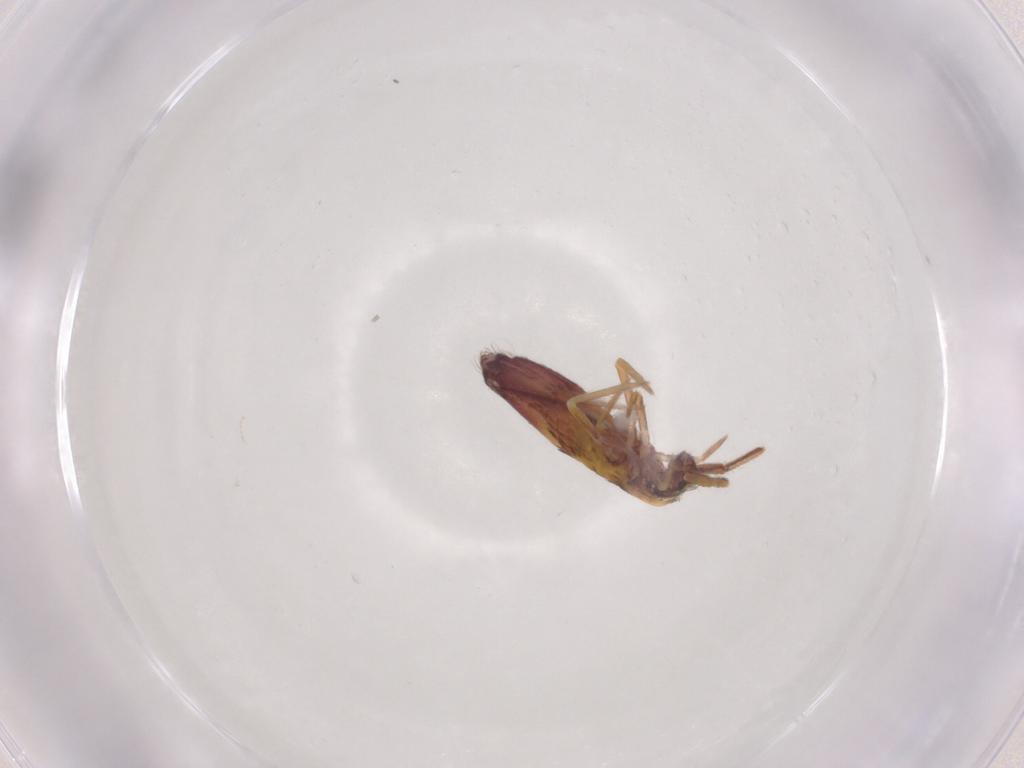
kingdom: Animalia
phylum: Arthropoda
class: Collembola
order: Entomobryomorpha
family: Entomobryidae
